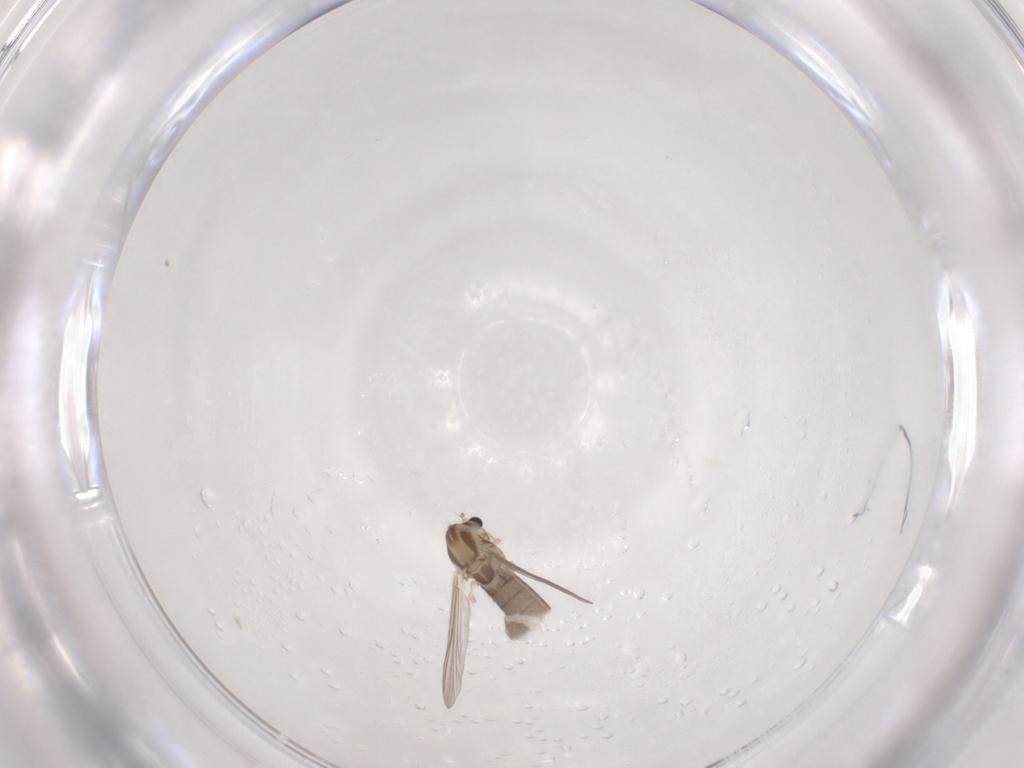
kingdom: Animalia
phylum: Arthropoda
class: Insecta
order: Diptera
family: Chironomidae
